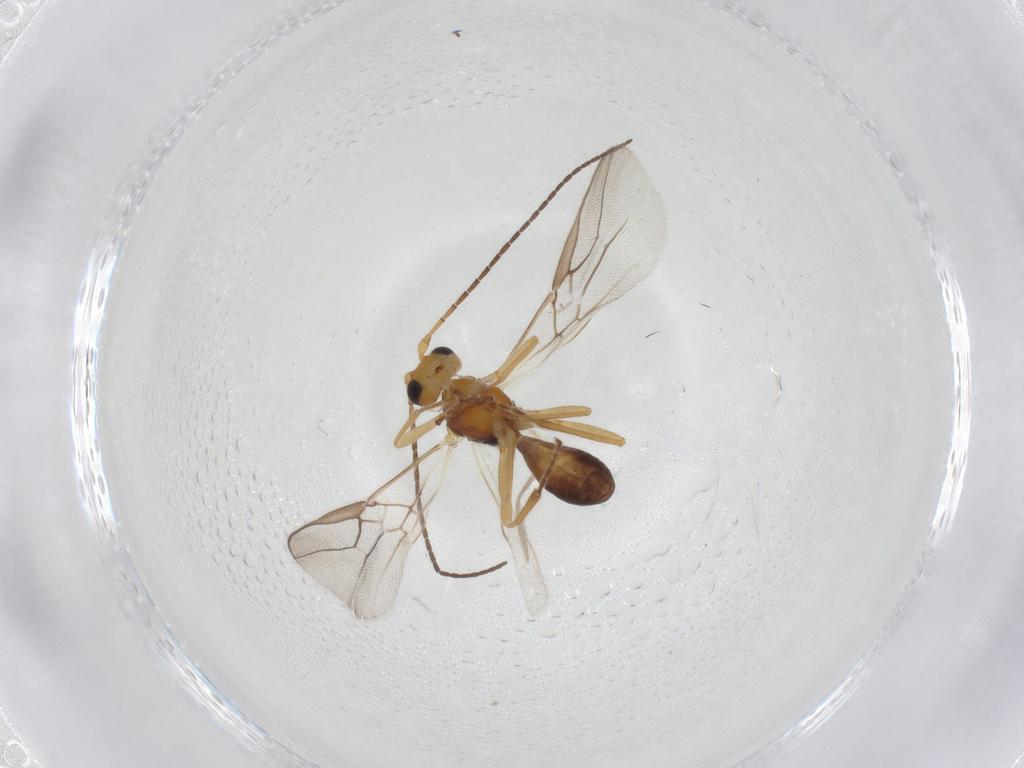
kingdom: Animalia
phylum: Arthropoda
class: Insecta
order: Hymenoptera
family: Braconidae
